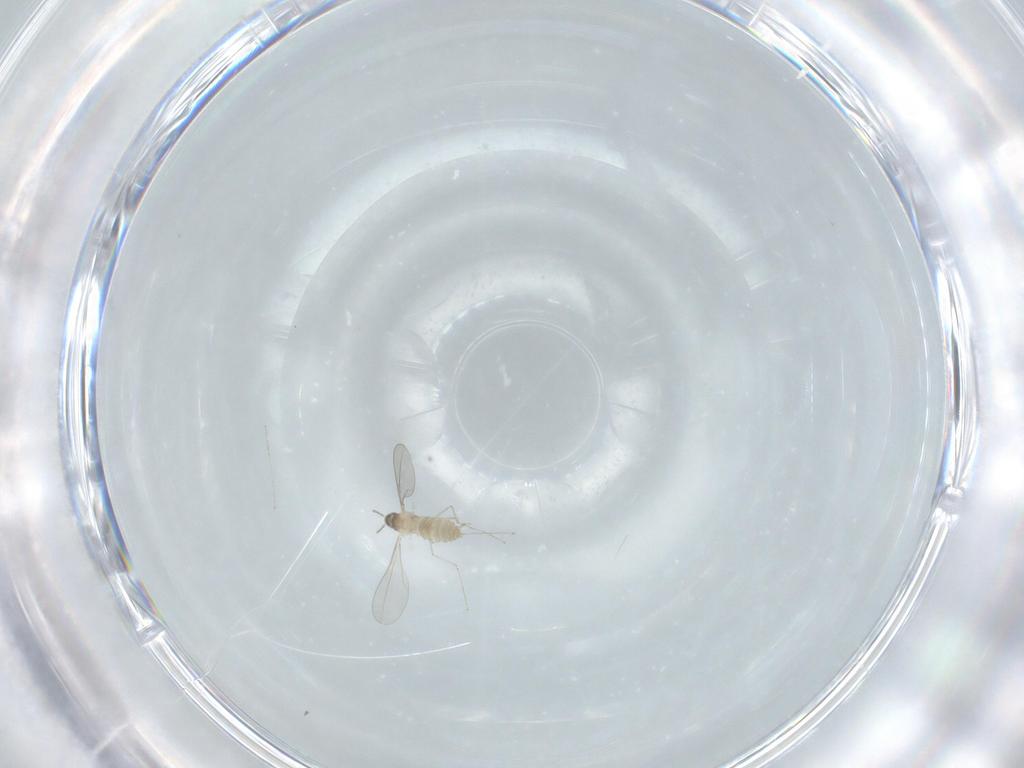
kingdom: Animalia
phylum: Arthropoda
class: Insecta
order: Diptera
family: Cecidomyiidae
